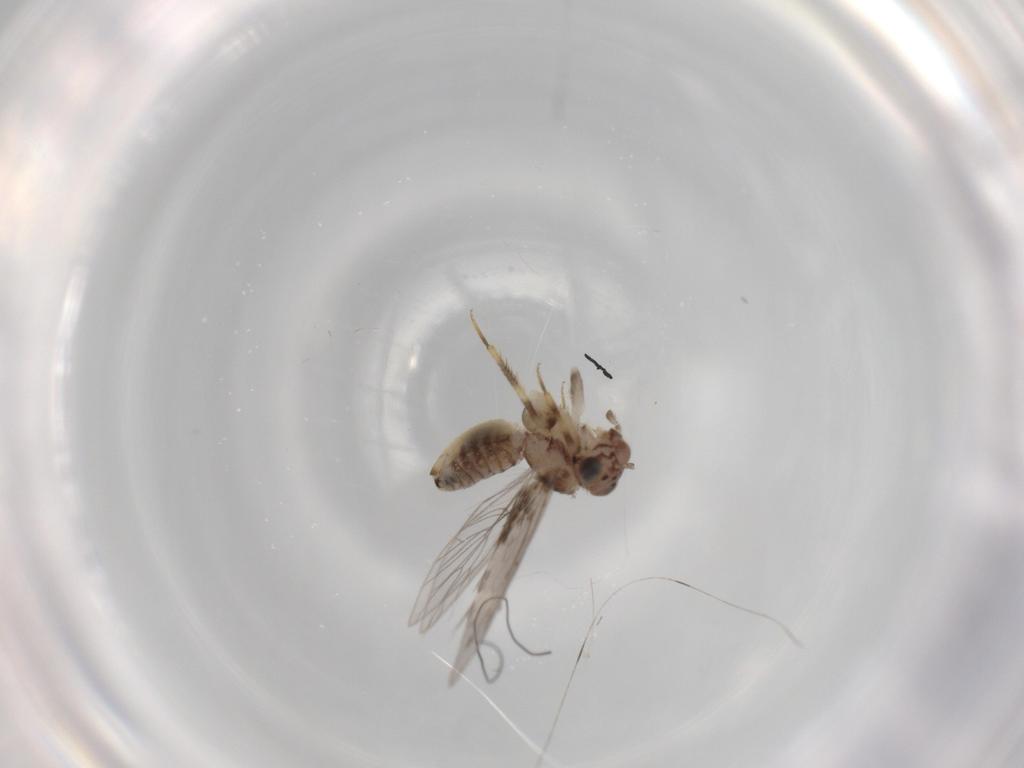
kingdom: Animalia
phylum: Arthropoda
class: Insecta
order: Psocodea
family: Lepidopsocidae
